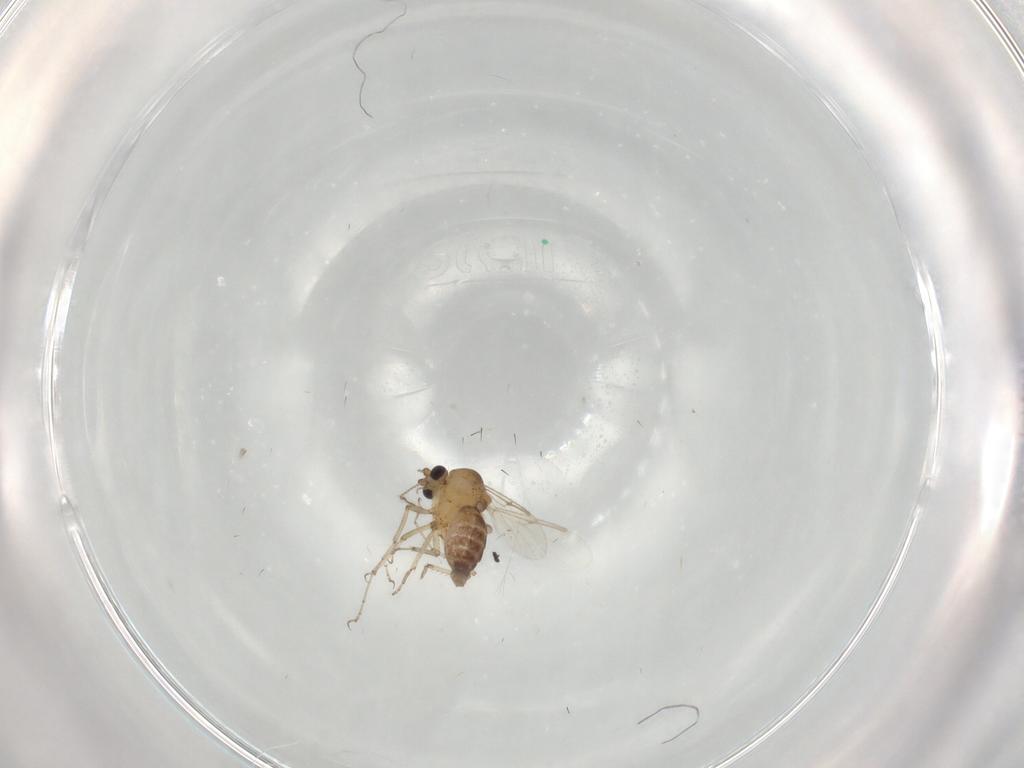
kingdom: Animalia
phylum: Arthropoda
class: Insecta
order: Diptera
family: Ceratopogonidae
